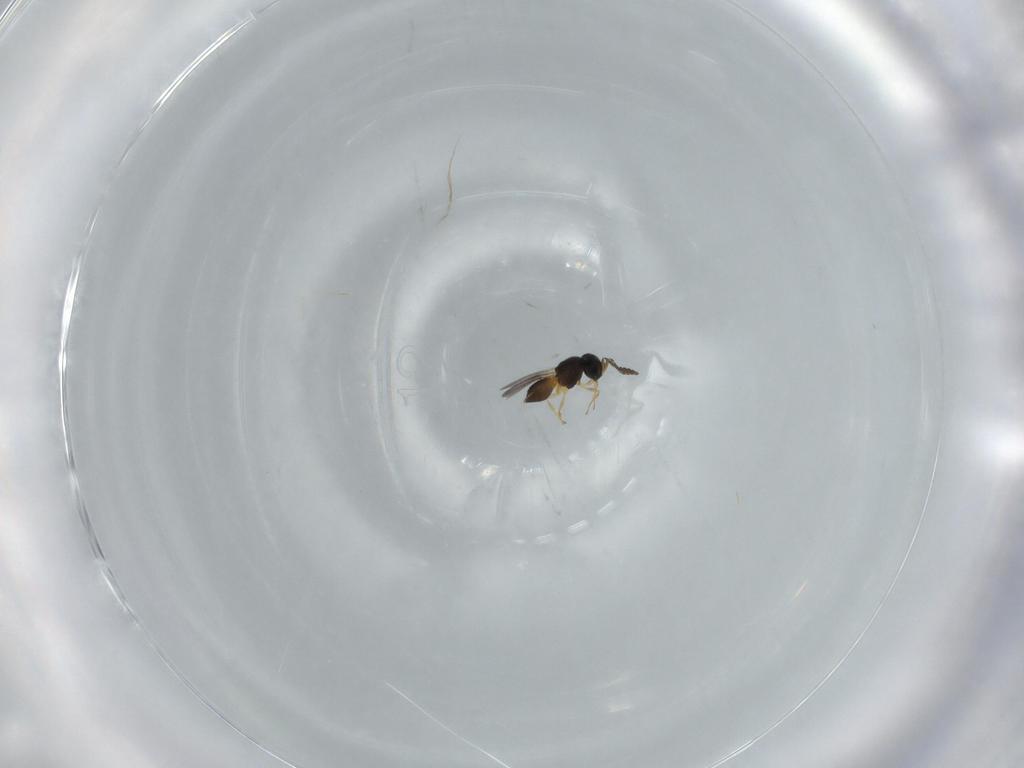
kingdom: Animalia
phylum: Arthropoda
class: Insecta
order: Hymenoptera
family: Scelionidae
